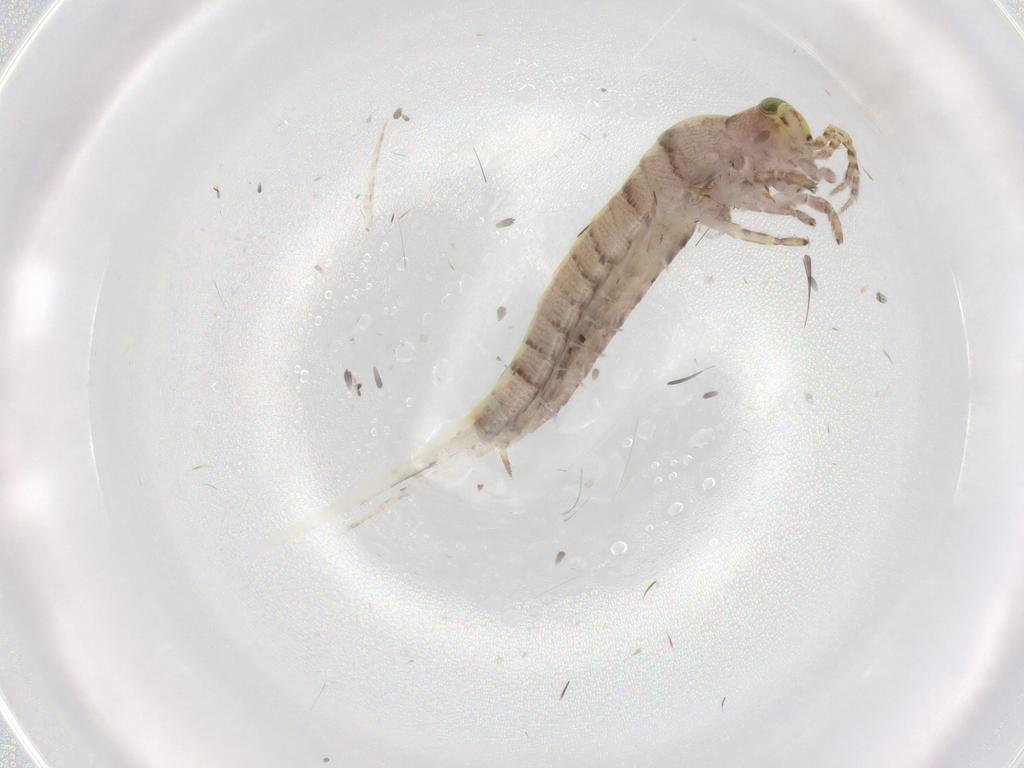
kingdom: Animalia
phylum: Arthropoda
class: Insecta
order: Archaeognatha
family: Machilidae
